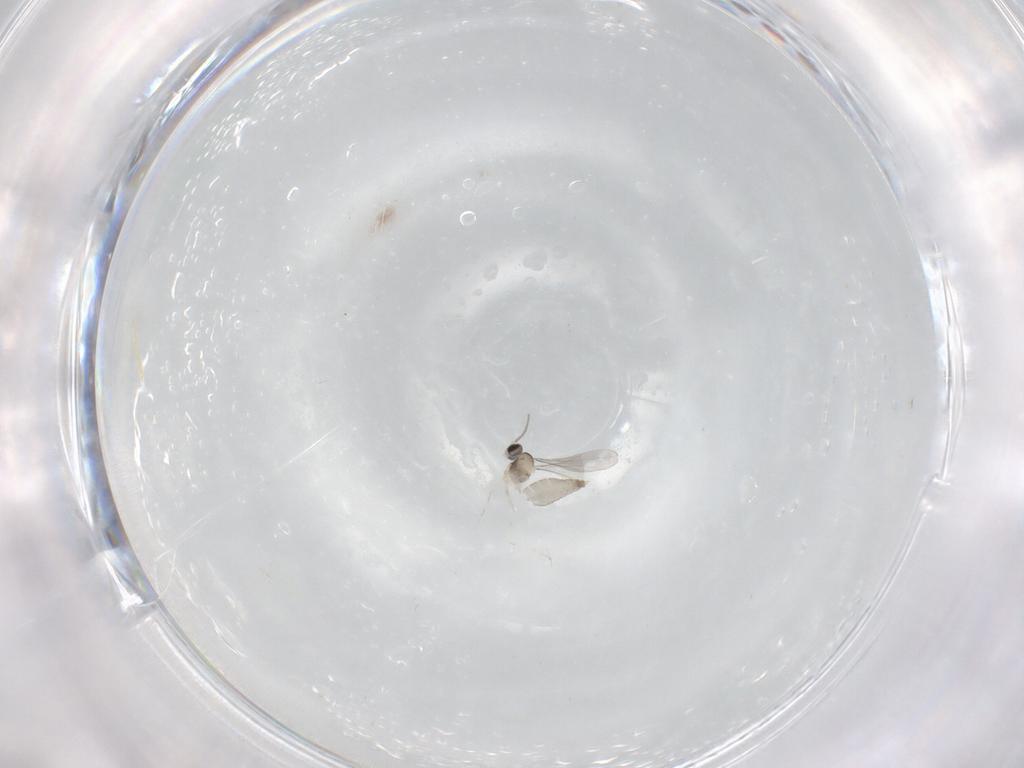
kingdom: Animalia
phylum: Arthropoda
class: Insecta
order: Diptera
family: Cecidomyiidae
